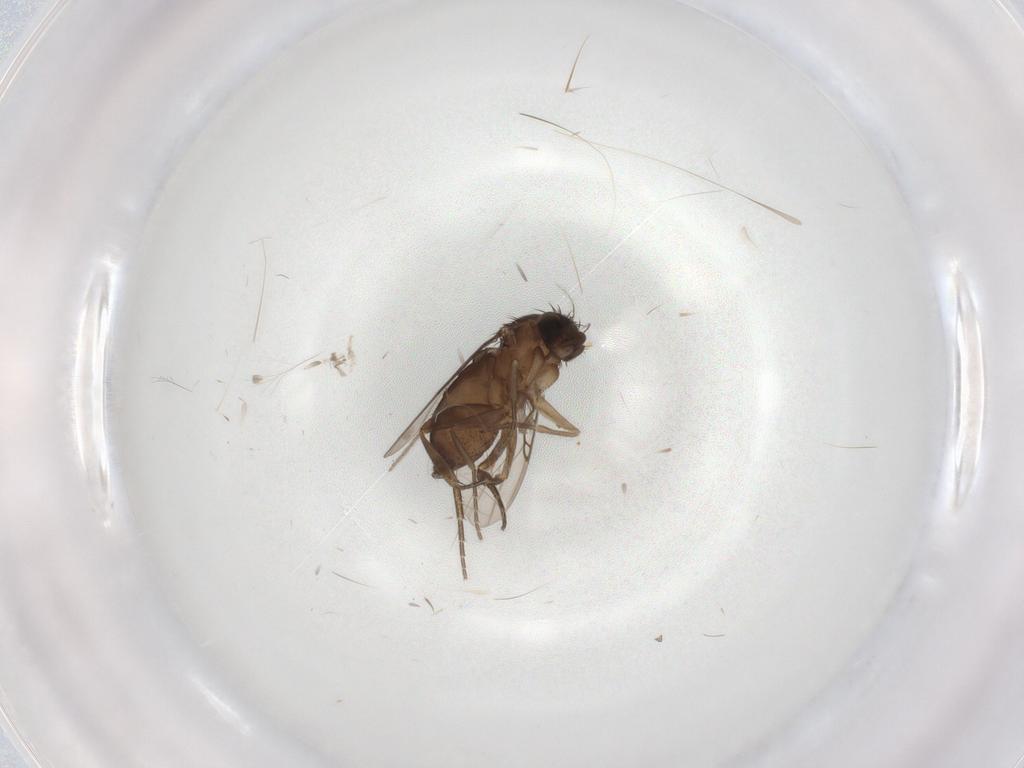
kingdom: Animalia
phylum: Arthropoda
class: Insecta
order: Diptera
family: Phoridae
